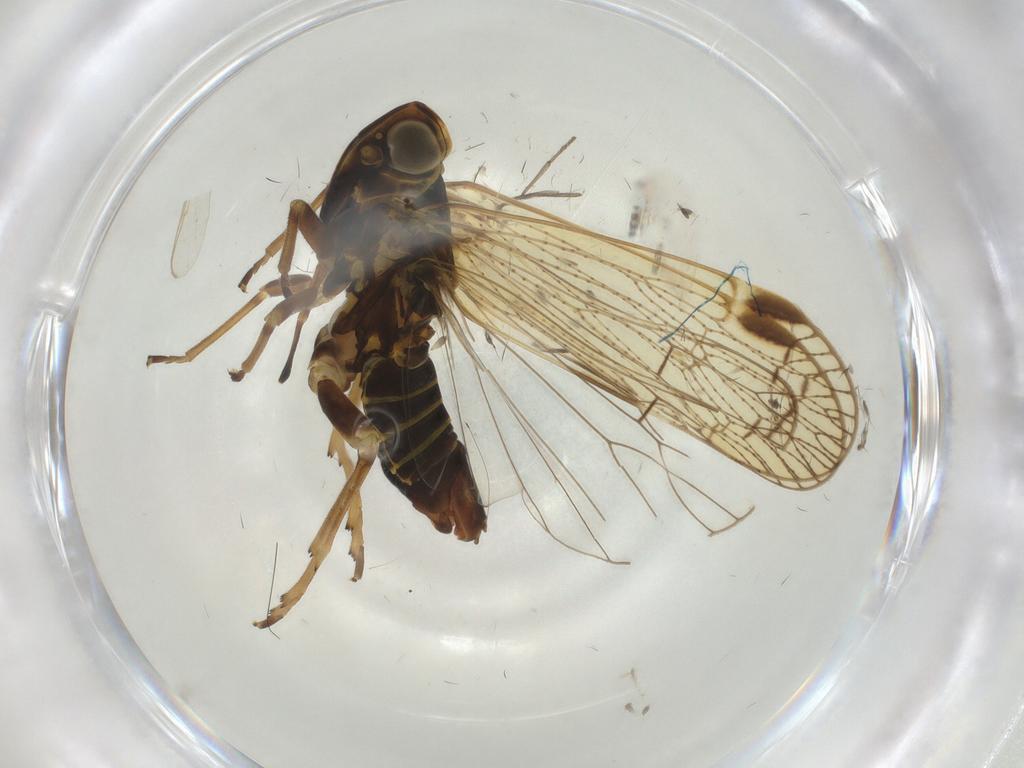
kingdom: Animalia
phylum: Arthropoda
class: Insecta
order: Hemiptera
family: Cixiidae
